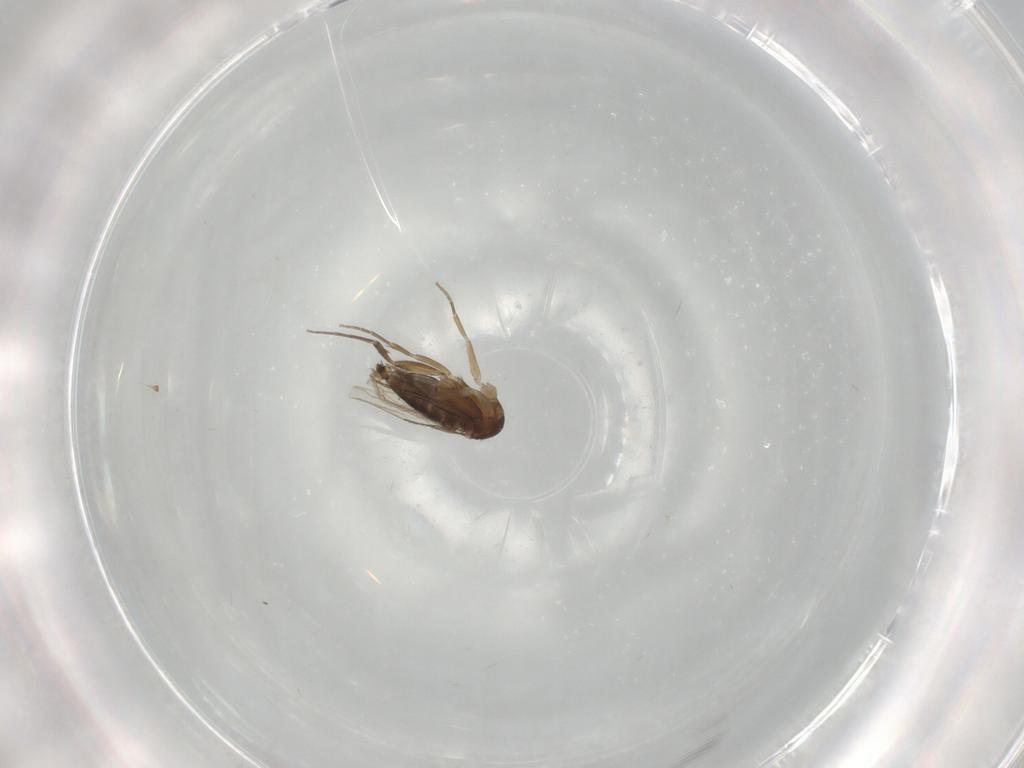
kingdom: Animalia
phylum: Arthropoda
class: Insecta
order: Diptera
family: Phoridae
